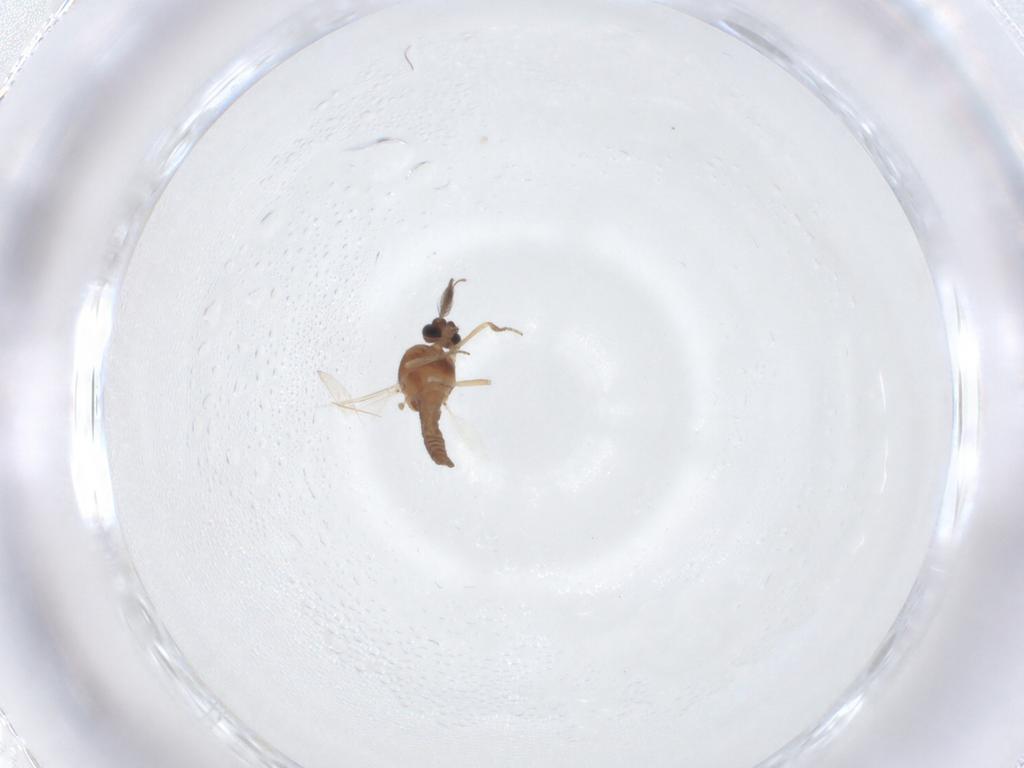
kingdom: Animalia
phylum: Arthropoda
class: Insecta
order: Diptera
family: Ceratopogonidae
